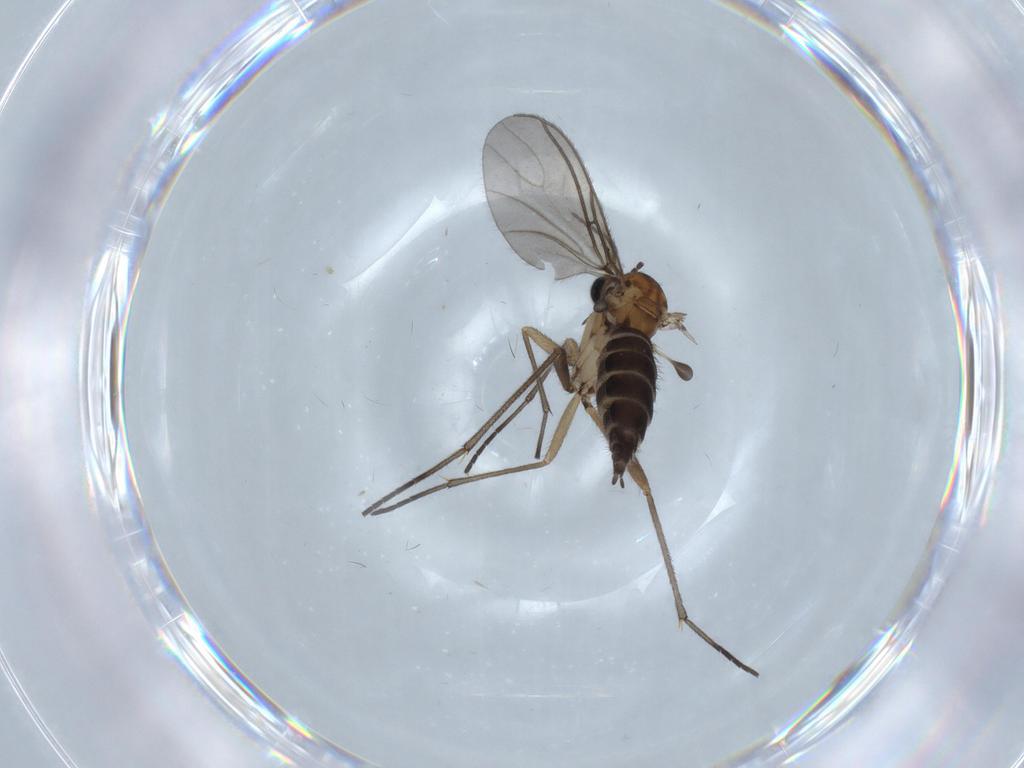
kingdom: Animalia
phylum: Arthropoda
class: Insecta
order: Diptera
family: Sciaridae
